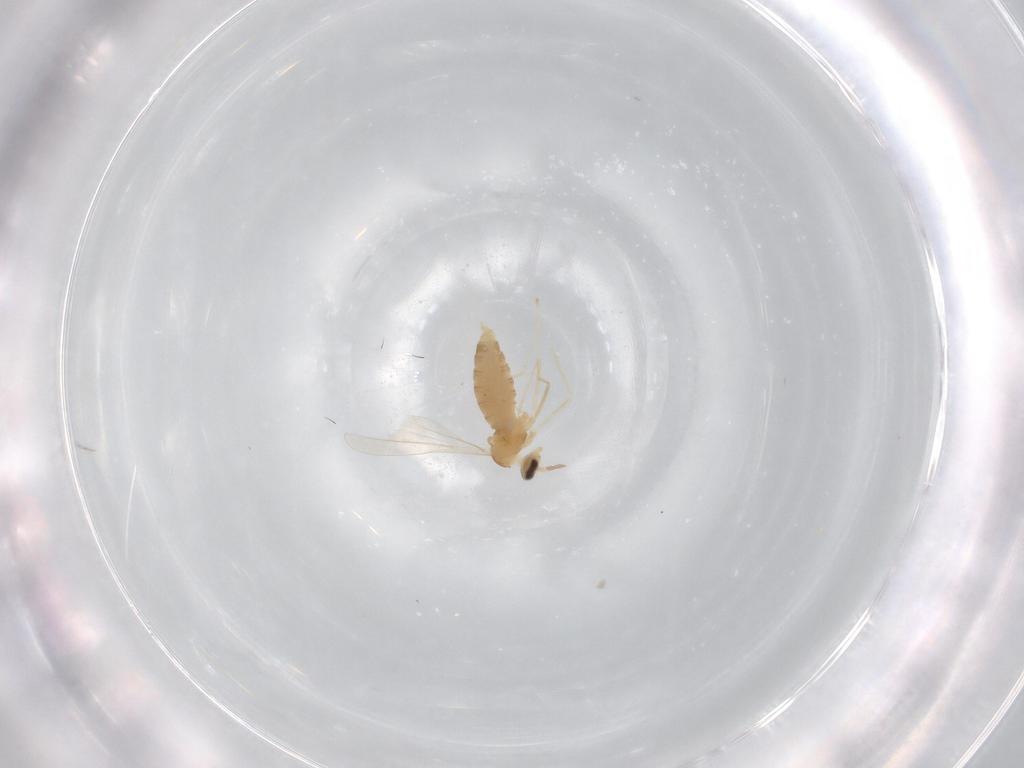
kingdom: Animalia
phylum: Arthropoda
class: Insecta
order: Diptera
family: Cecidomyiidae
